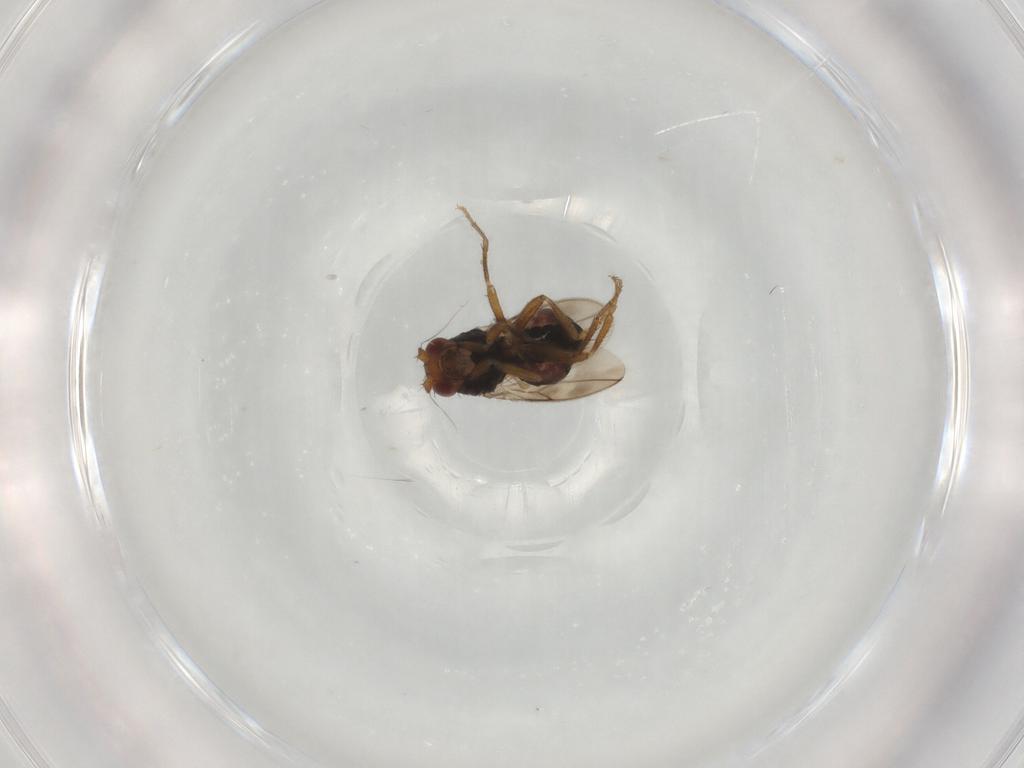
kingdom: Animalia
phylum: Arthropoda
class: Insecta
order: Diptera
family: Sphaeroceridae
